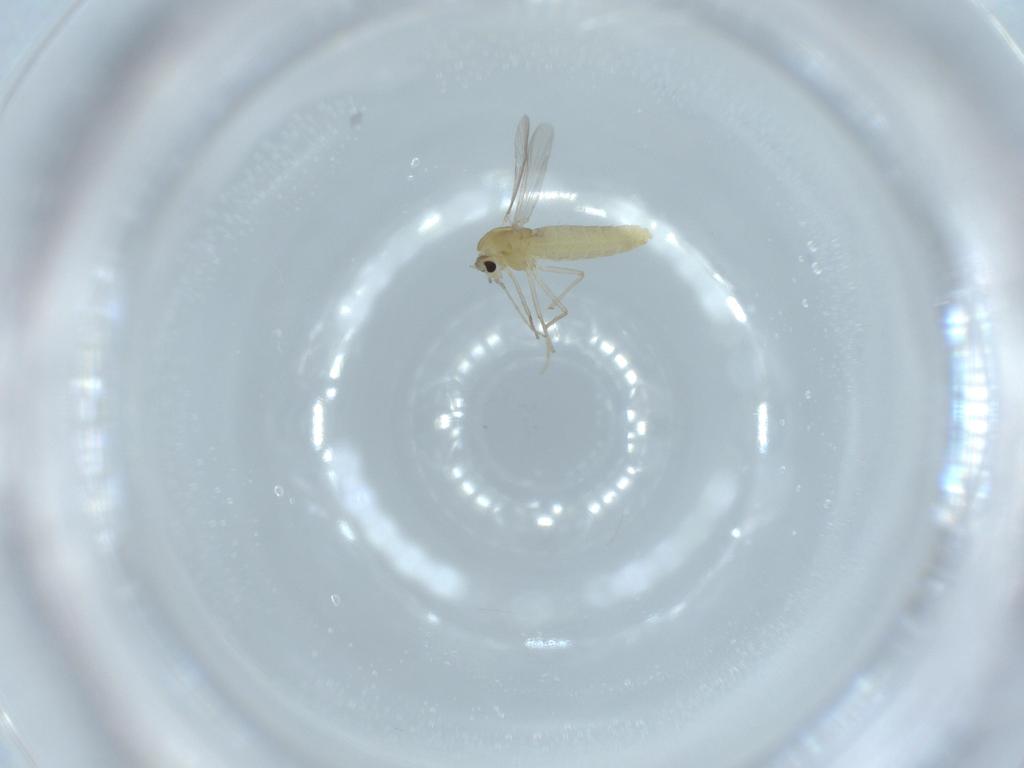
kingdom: Animalia
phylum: Arthropoda
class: Insecta
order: Diptera
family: Chironomidae
